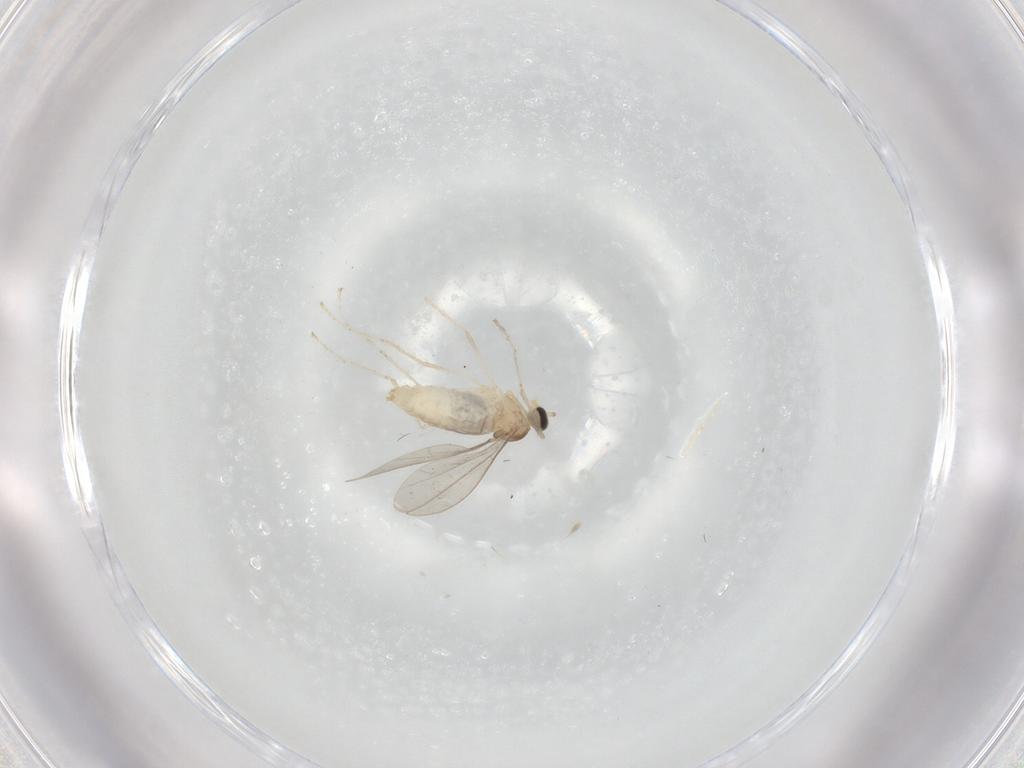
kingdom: Animalia
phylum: Arthropoda
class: Insecta
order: Diptera
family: Cecidomyiidae
